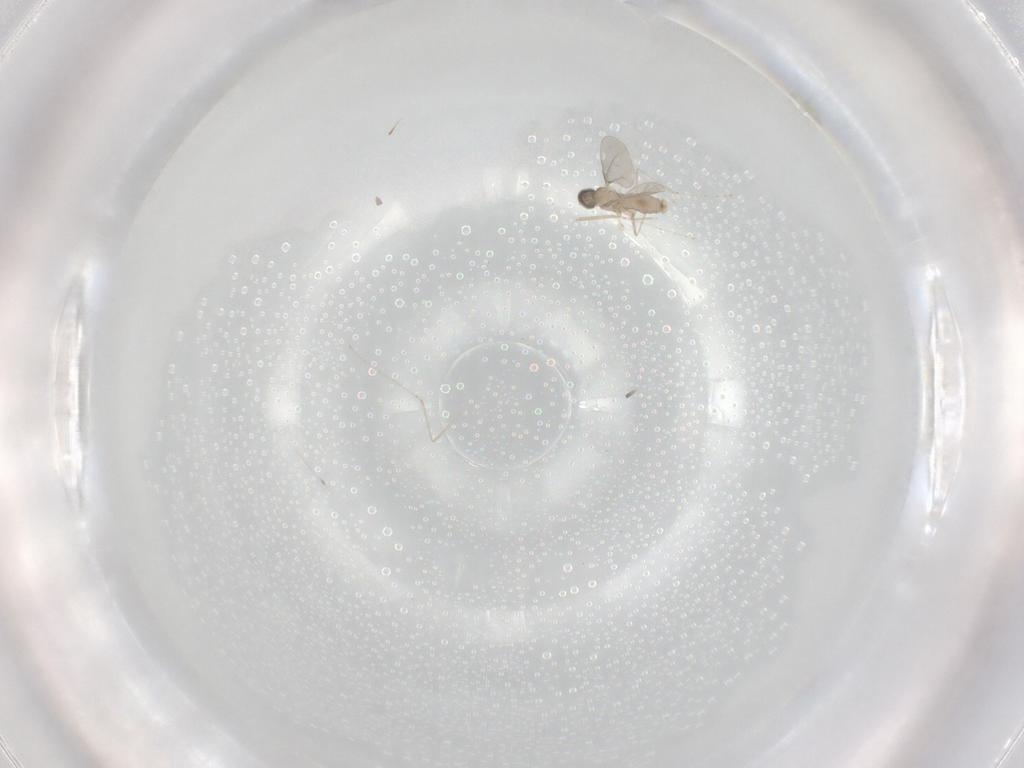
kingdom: Animalia
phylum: Arthropoda
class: Insecta
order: Diptera
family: Cecidomyiidae
